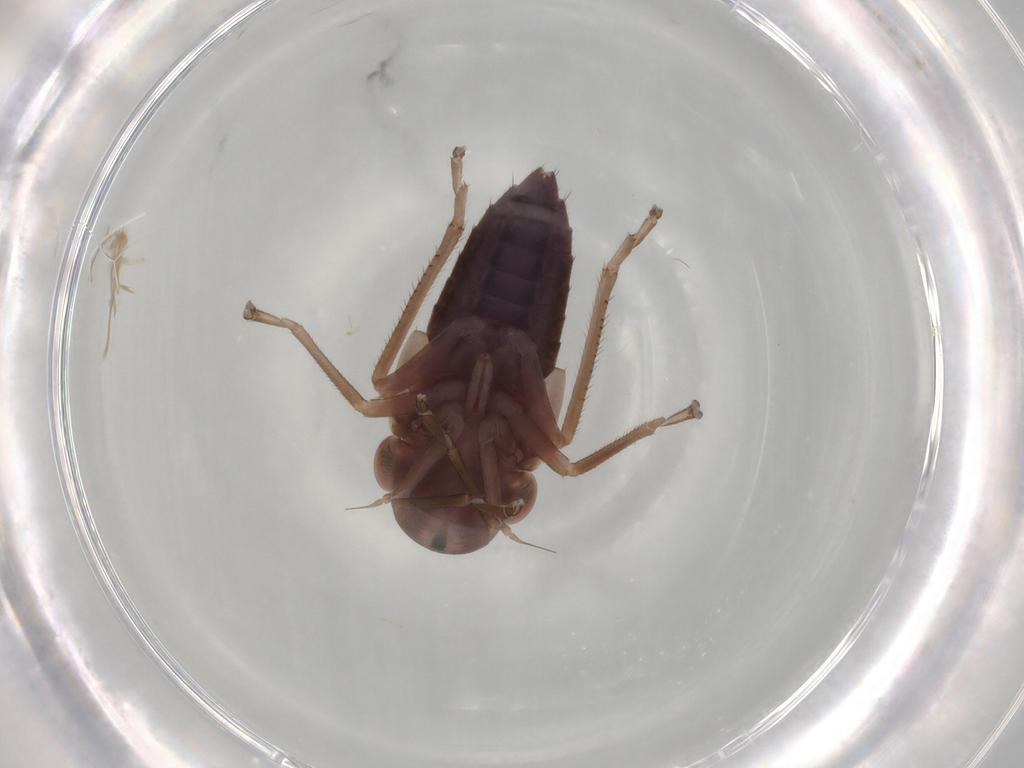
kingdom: Animalia
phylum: Arthropoda
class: Insecta
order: Hemiptera
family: Cicadellidae
